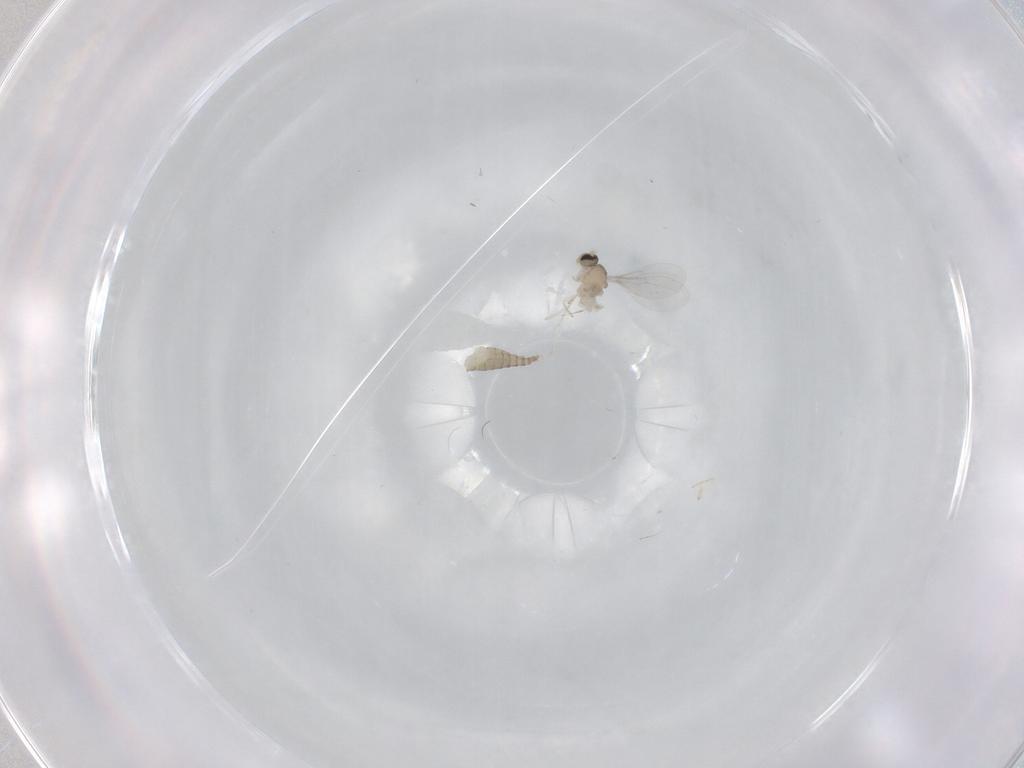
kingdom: Animalia
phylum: Arthropoda
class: Insecta
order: Diptera
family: Cecidomyiidae
